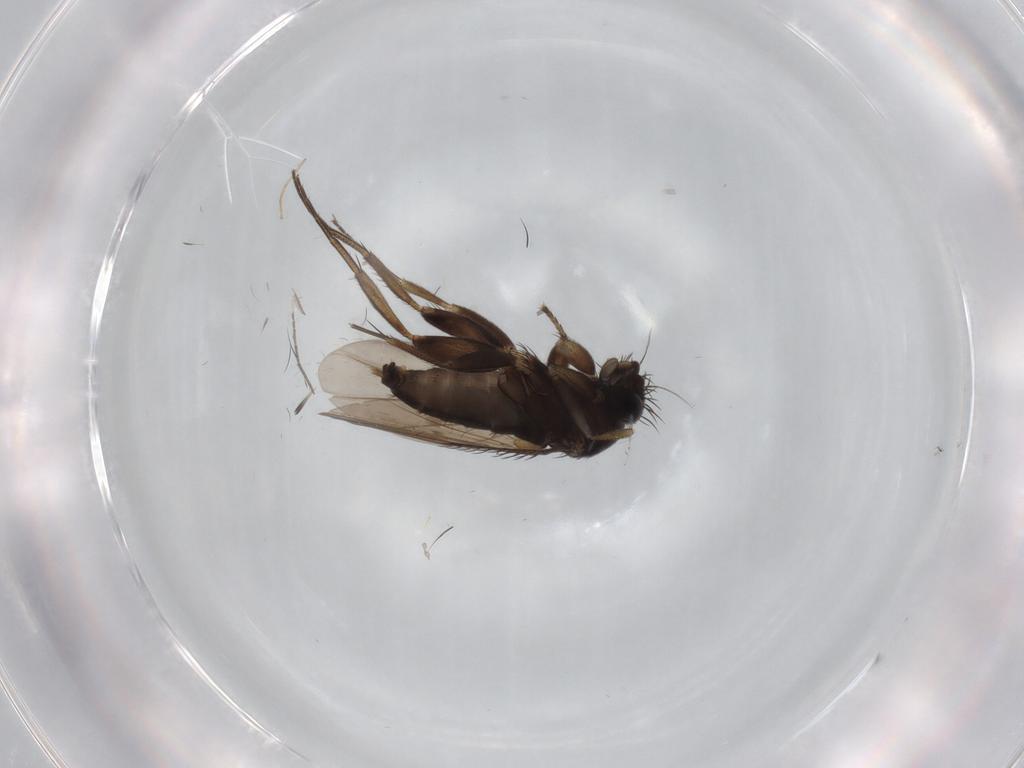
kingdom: Animalia
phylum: Arthropoda
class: Insecta
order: Diptera
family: Phoridae
